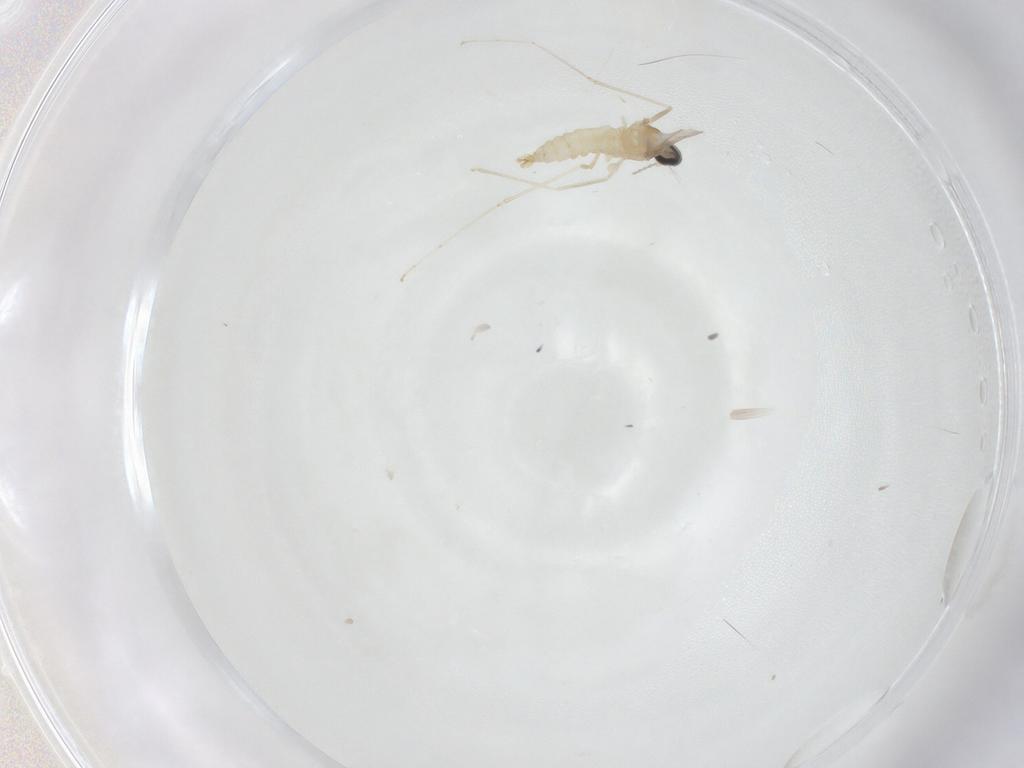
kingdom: Animalia
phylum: Arthropoda
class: Insecta
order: Diptera
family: Cecidomyiidae
